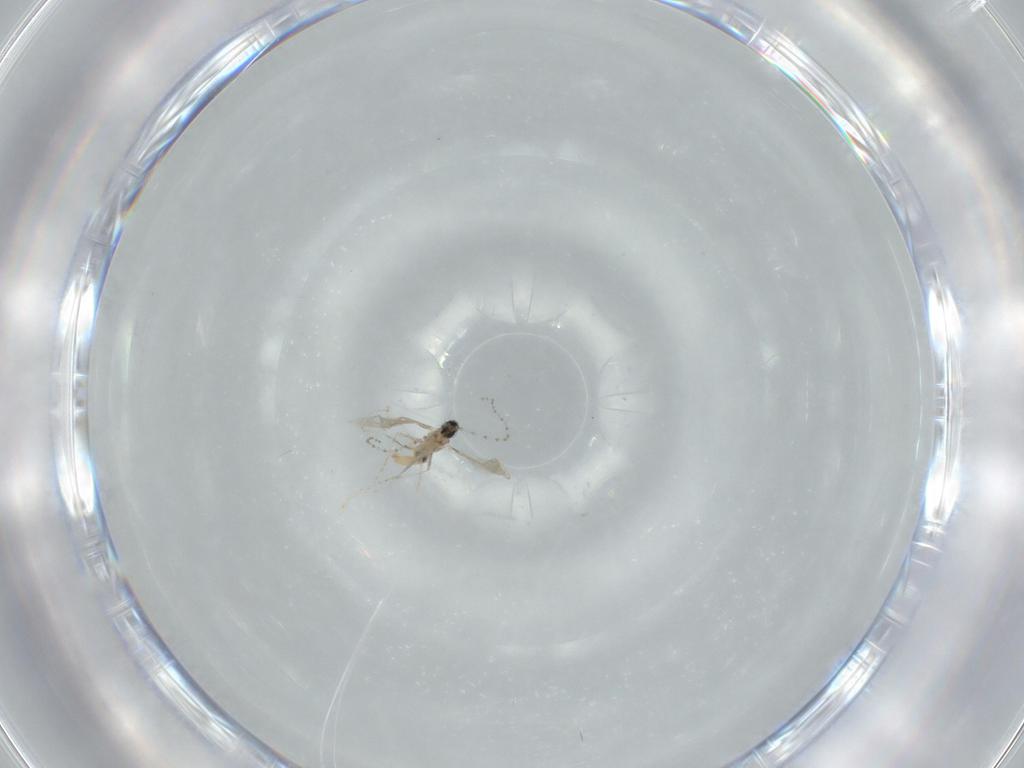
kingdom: Animalia
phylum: Arthropoda
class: Insecta
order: Diptera
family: Cecidomyiidae
